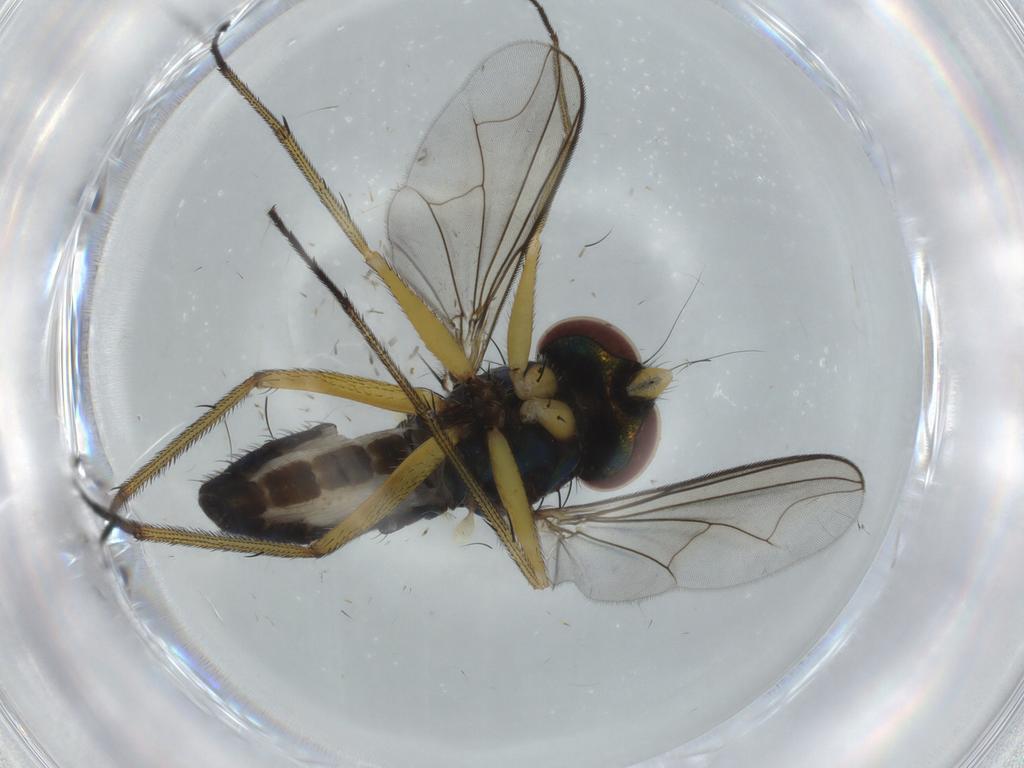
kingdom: Animalia
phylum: Arthropoda
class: Insecta
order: Diptera
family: Dolichopodidae
